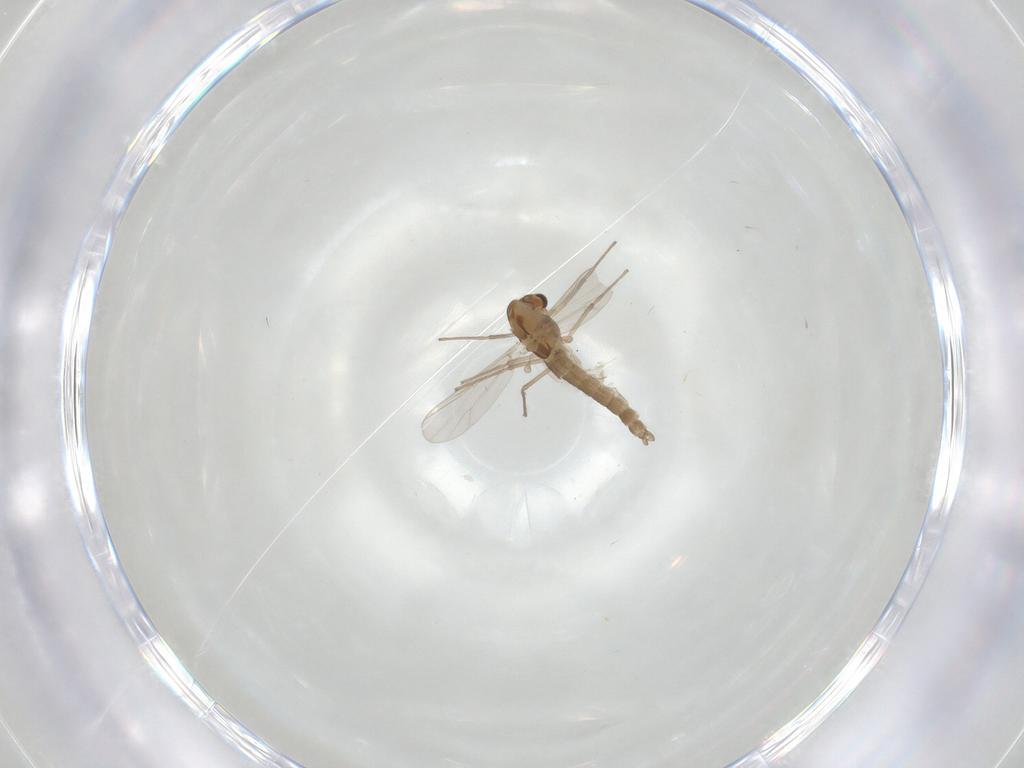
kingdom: Animalia
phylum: Arthropoda
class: Insecta
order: Diptera
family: Chironomidae
